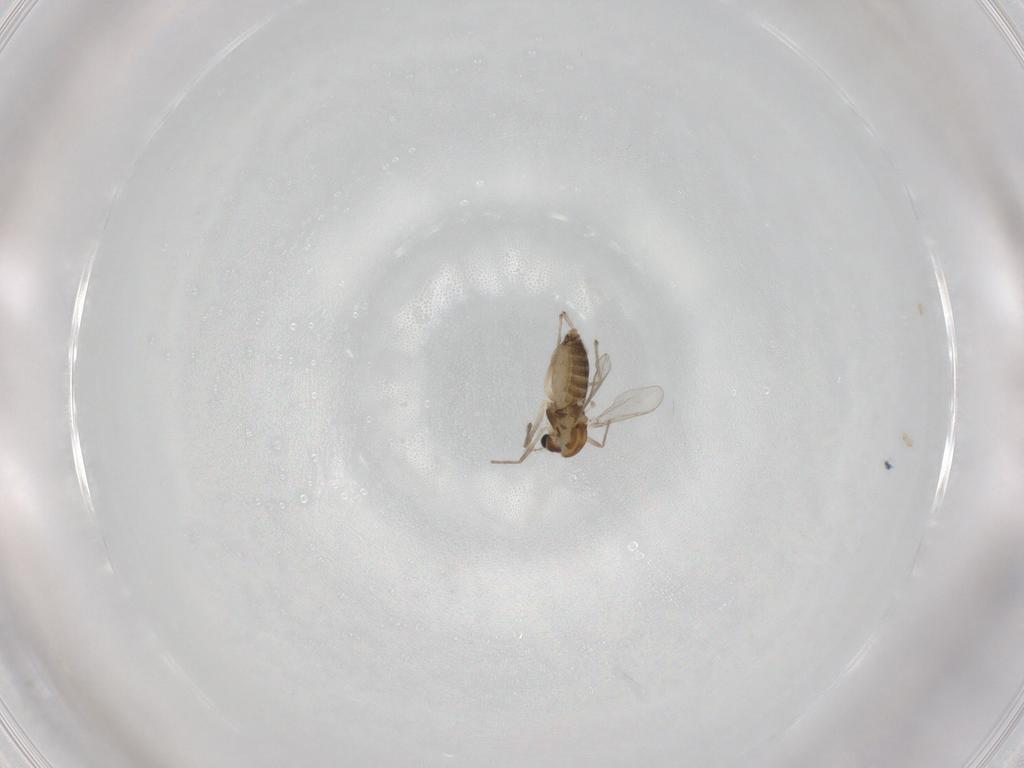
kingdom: Animalia
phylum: Arthropoda
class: Insecta
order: Diptera
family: Chironomidae
